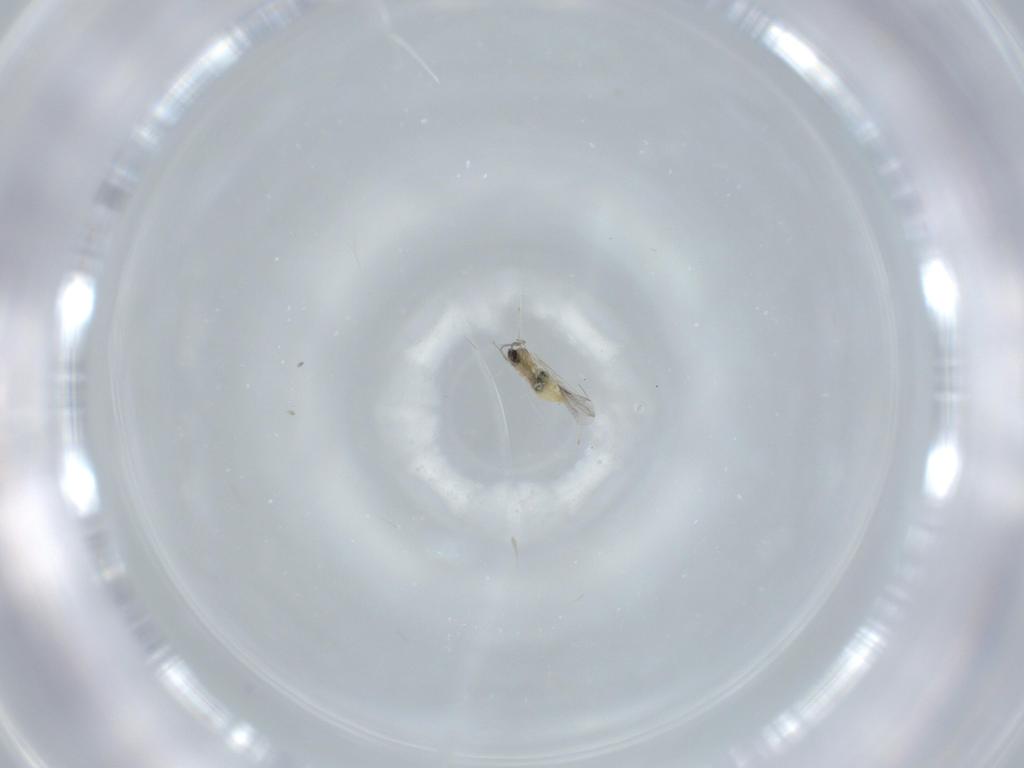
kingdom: Animalia
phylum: Arthropoda
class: Insecta
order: Diptera
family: Cecidomyiidae
